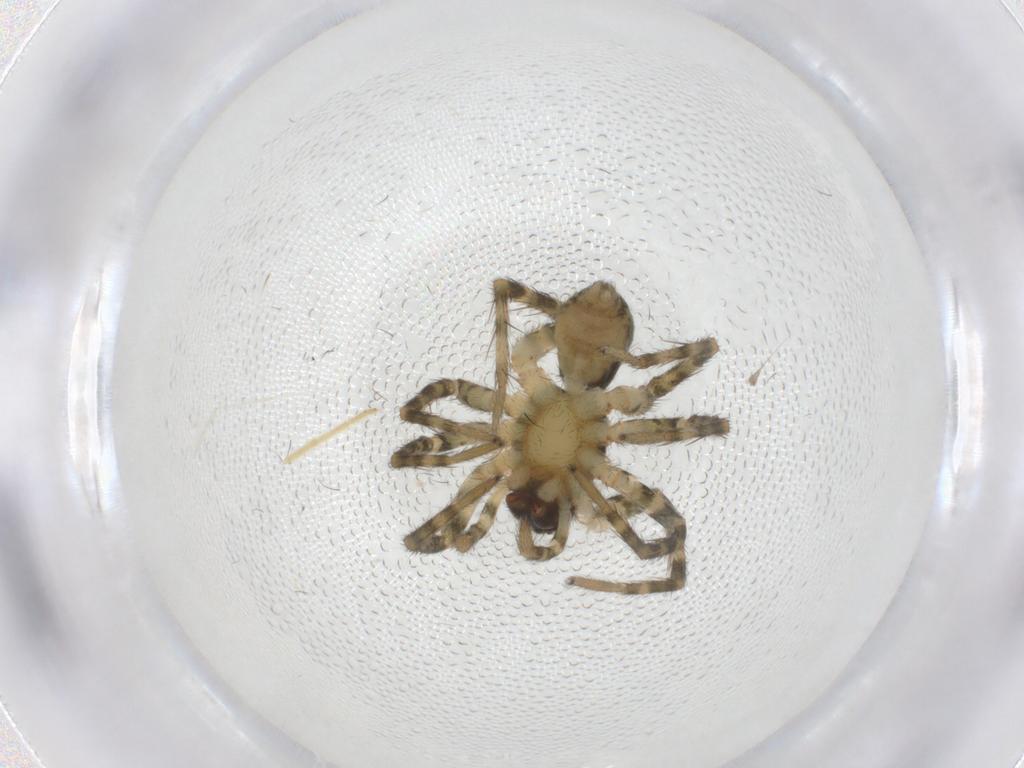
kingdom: Animalia
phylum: Arthropoda
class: Arachnida
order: Araneae
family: Lycosidae
